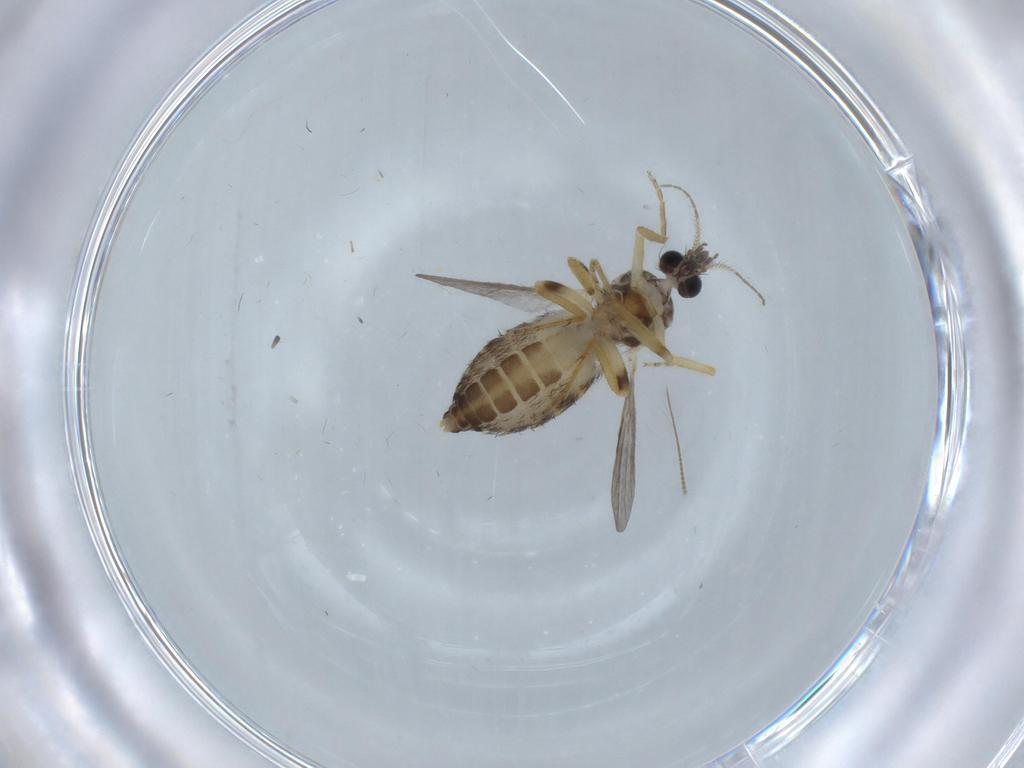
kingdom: Animalia
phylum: Arthropoda
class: Insecta
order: Diptera
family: Ceratopogonidae
